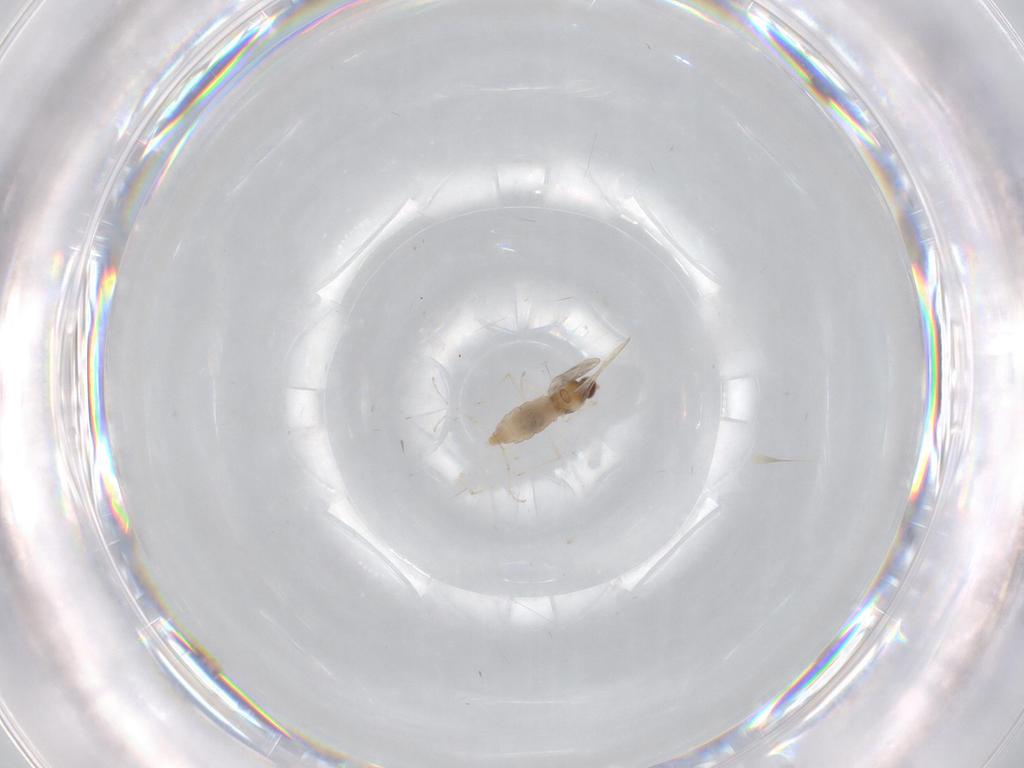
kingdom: Animalia
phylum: Arthropoda
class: Insecta
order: Diptera
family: Cecidomyiidae
